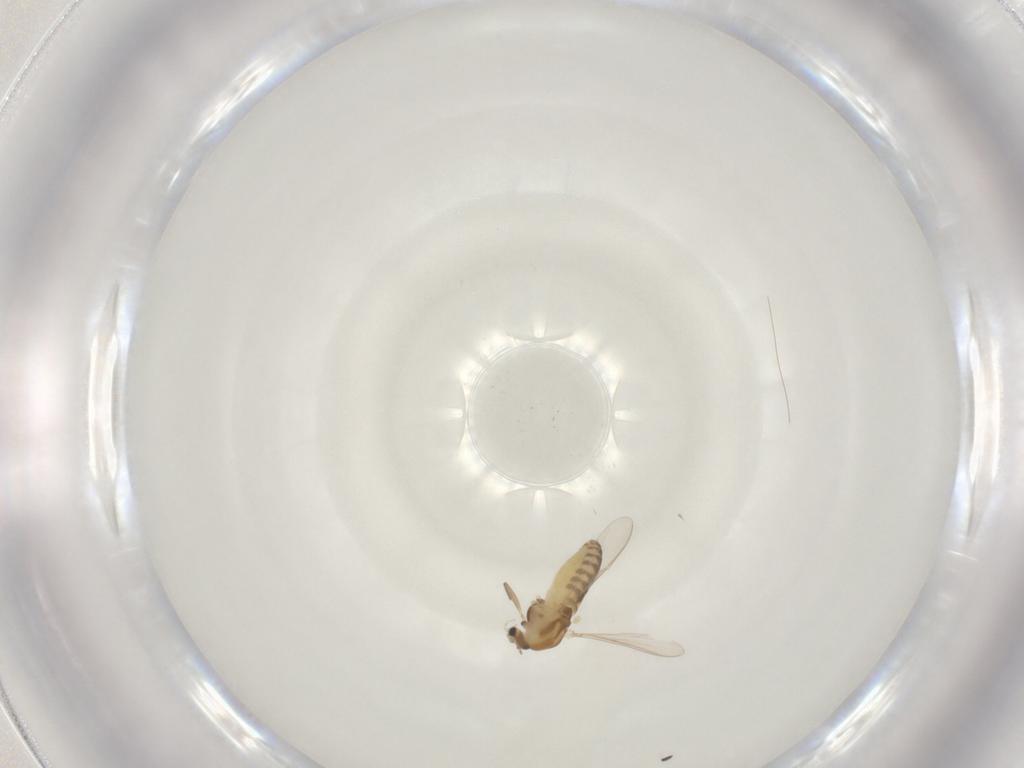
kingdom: Animalia
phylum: Arthropoda
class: Insecta
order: Diptera
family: Chironomidae
